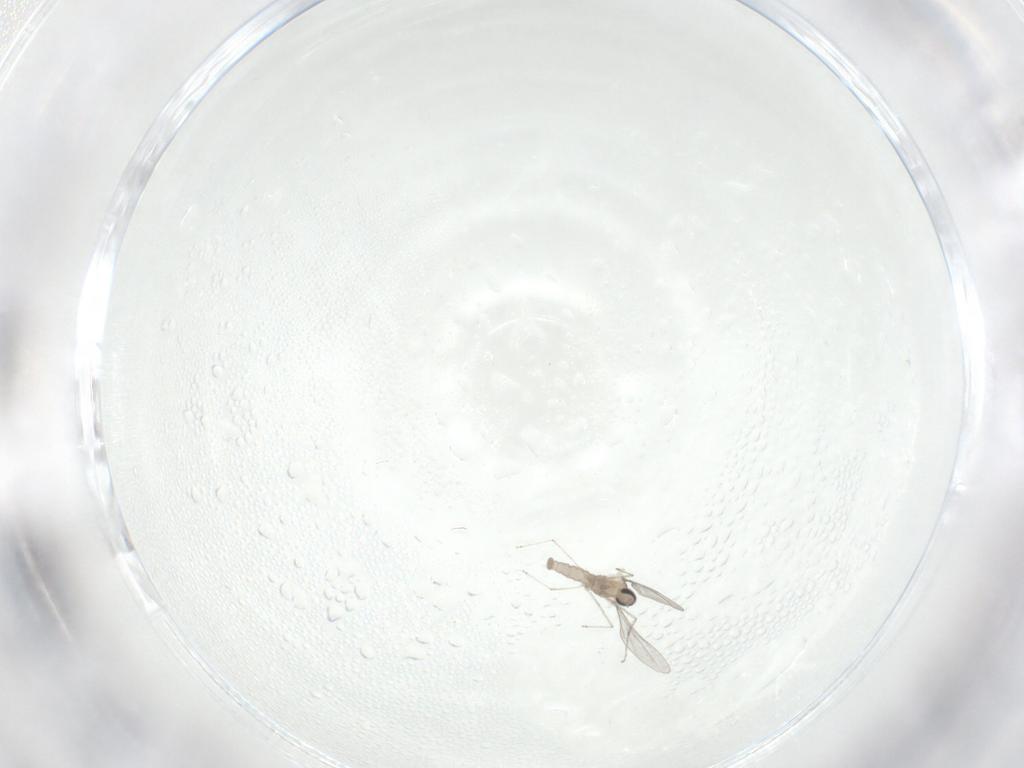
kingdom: Animalia
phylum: Arthropoda
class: Insecta
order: Diptera
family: Cecidomyiidae
